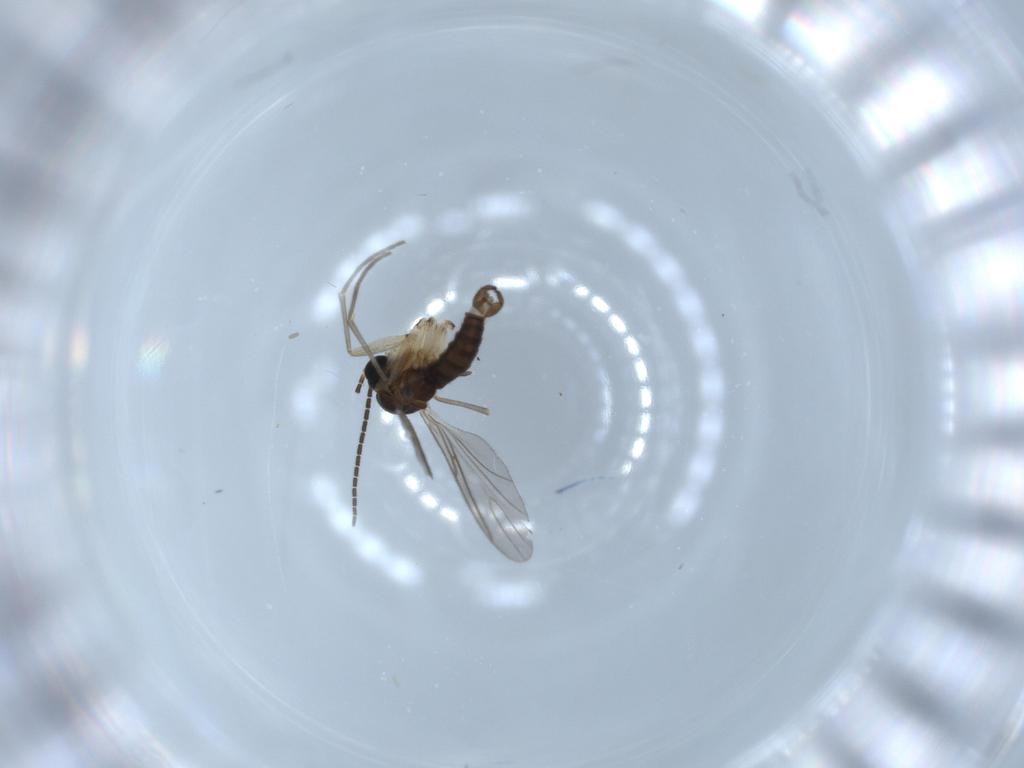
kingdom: Animalia
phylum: Arthropoda
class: Insecta
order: Diptera
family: Sciaridae
